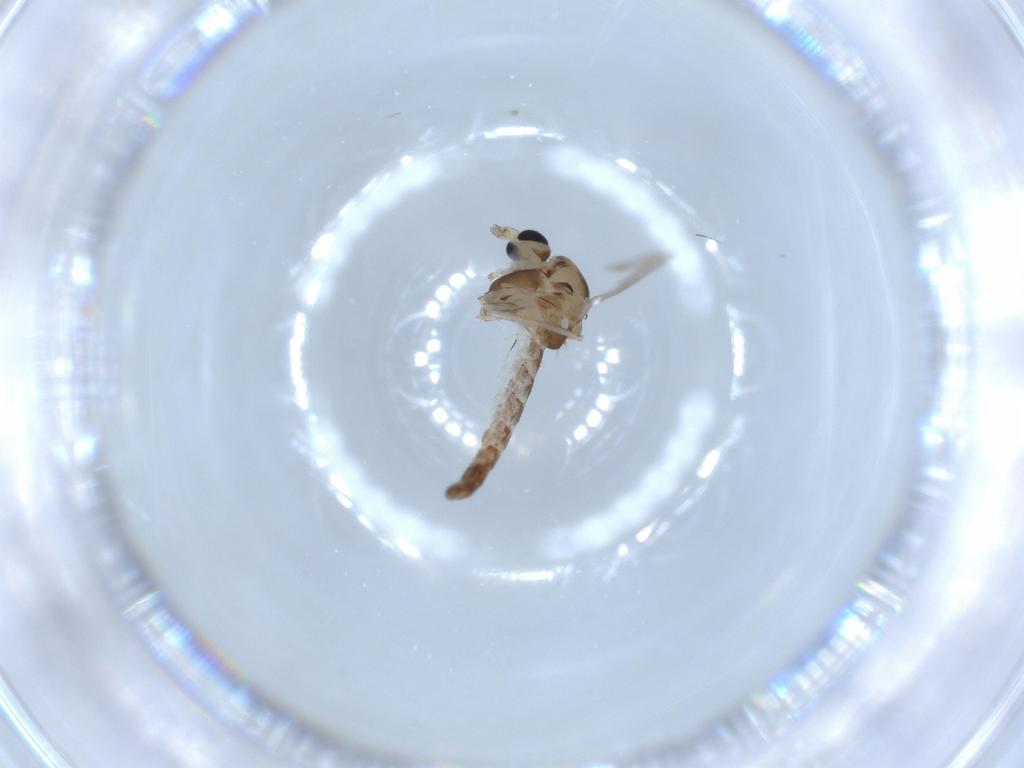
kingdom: Animalia
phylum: Arthropoda
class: Insecta
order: Diptera
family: Chironomidae
